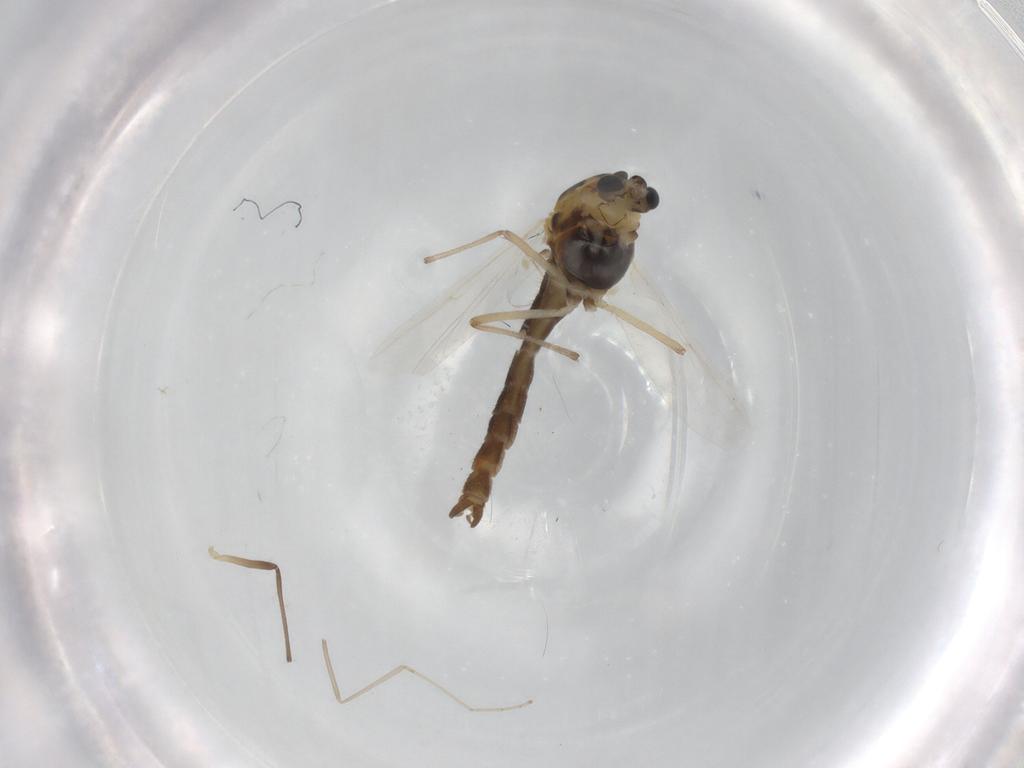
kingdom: Animalia
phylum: Arthropoda
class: Insecta
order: Diptera
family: Chironomidae
